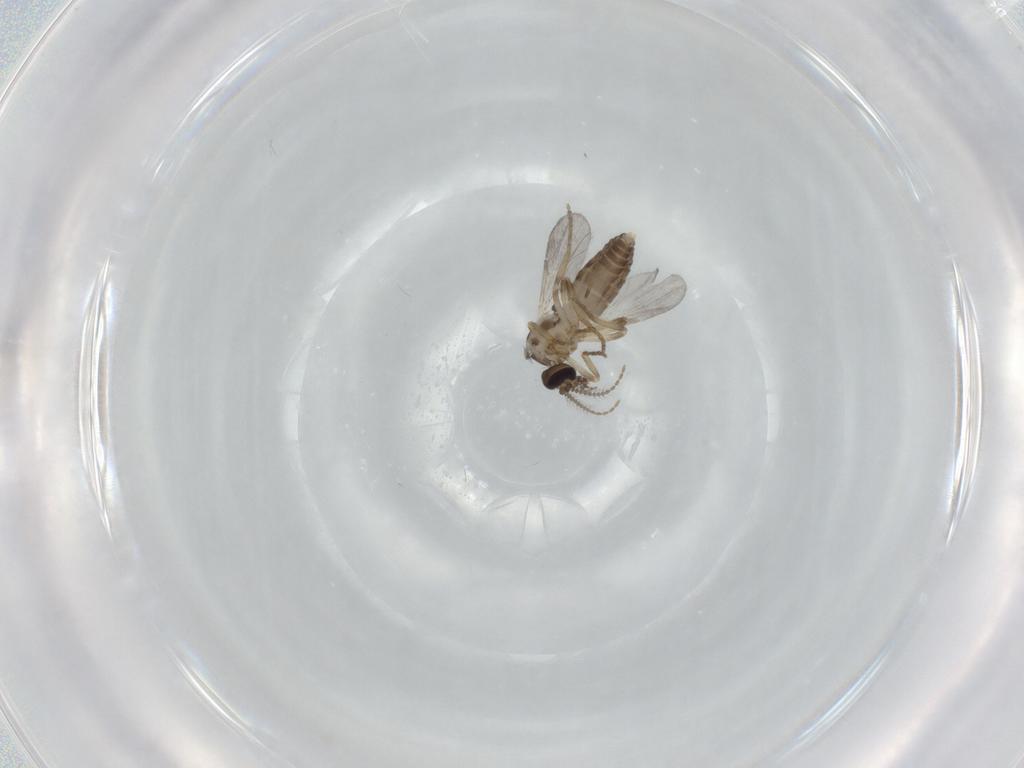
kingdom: Animalia
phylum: Arthropoda
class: Insecta
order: Diptera
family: Ceratopogonidae
